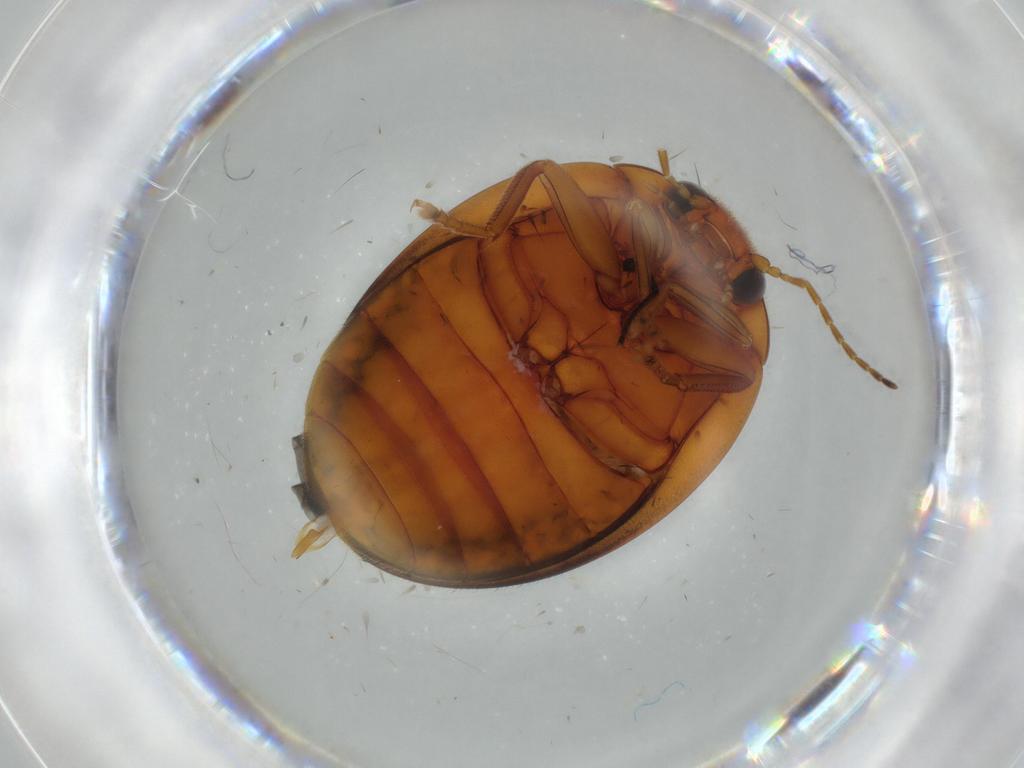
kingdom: Animalia
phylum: Arthropoda
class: Insecta
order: Coleoptera
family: Scirtidae
